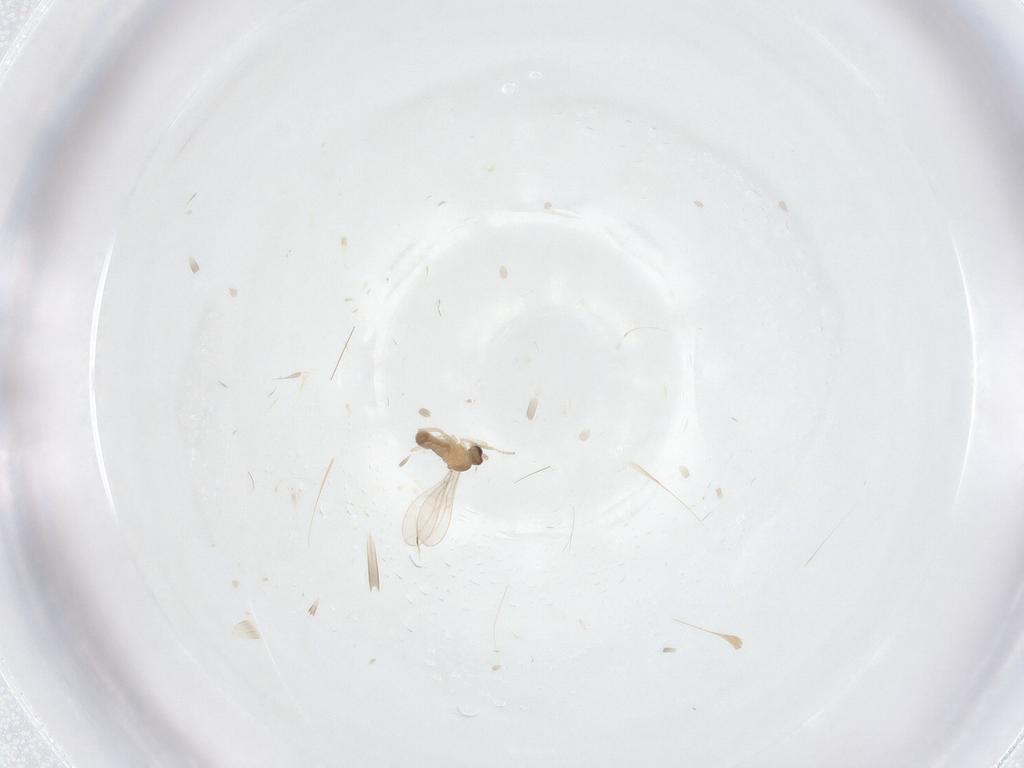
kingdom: Animalia
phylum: Arthropoda
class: Insecta
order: Diptera
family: Cecidomyiidae
